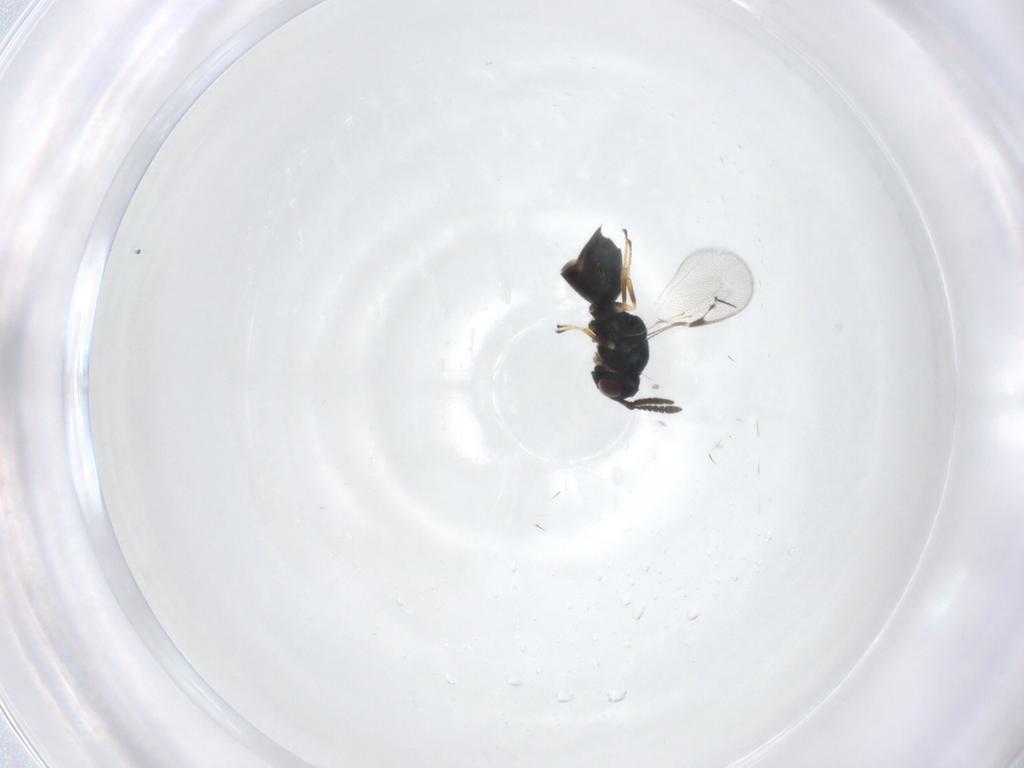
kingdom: Animalia
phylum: Arthropoda
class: Insecta
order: Hymenoptera
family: Pteromalidae
